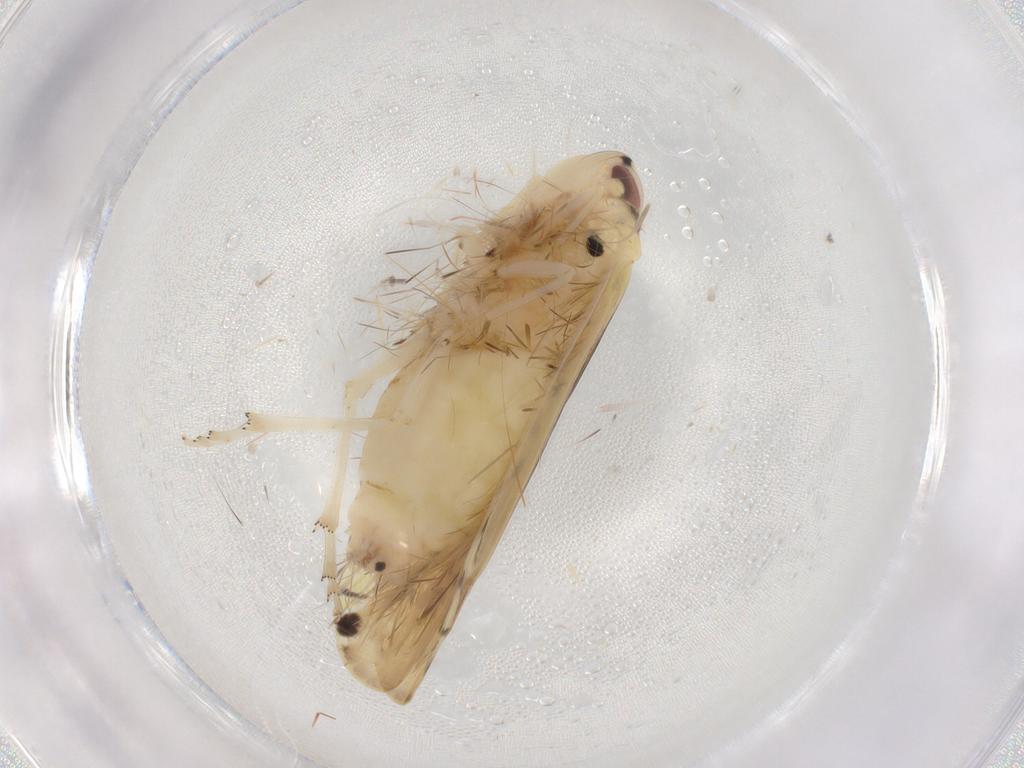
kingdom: Animalia
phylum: Arthropoda
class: Insecta
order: Hemiptera
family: Achilidae
